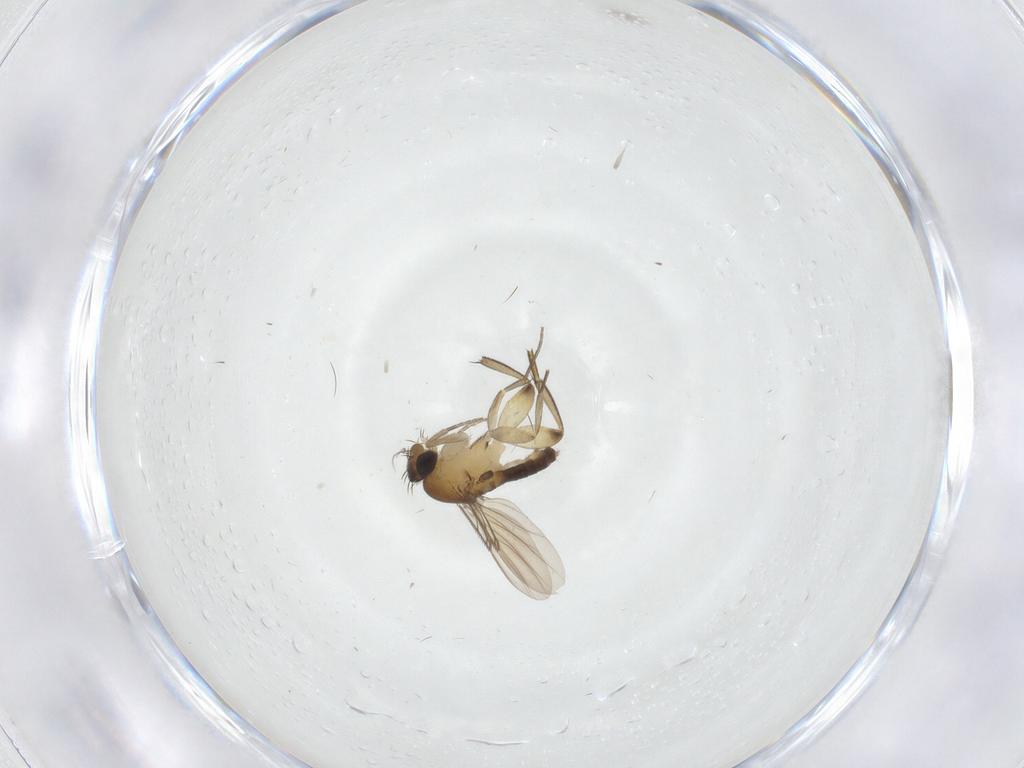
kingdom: Animalia
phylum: Arthropoda
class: Insecta
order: Diptera
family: Phoridae
